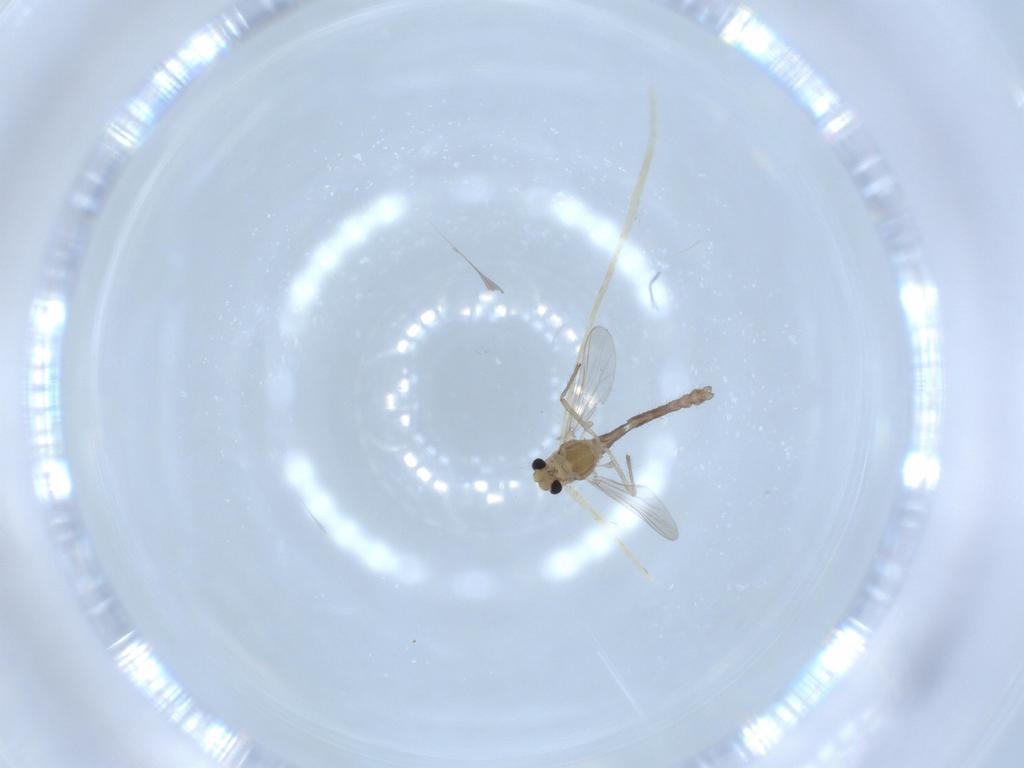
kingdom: Animalia
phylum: Arthropoda
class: Insecta
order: Diptera
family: Chironomidae
